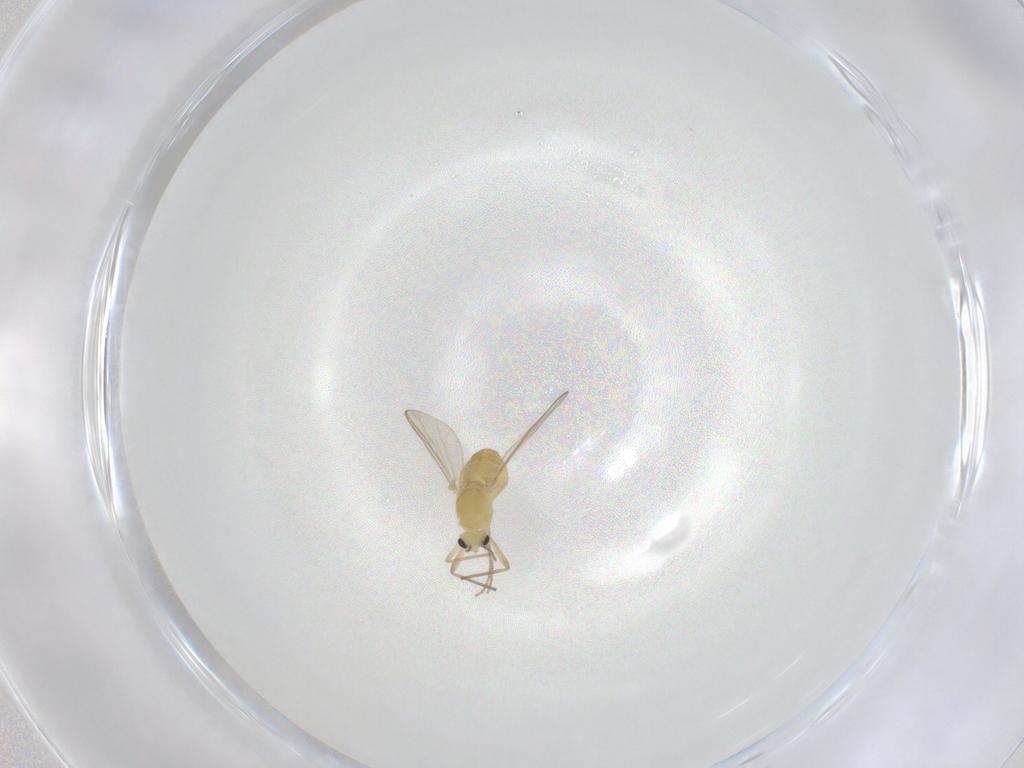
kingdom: Animalia
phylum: Arthropoda
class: Insecta
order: Diptera
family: Chironomidae
